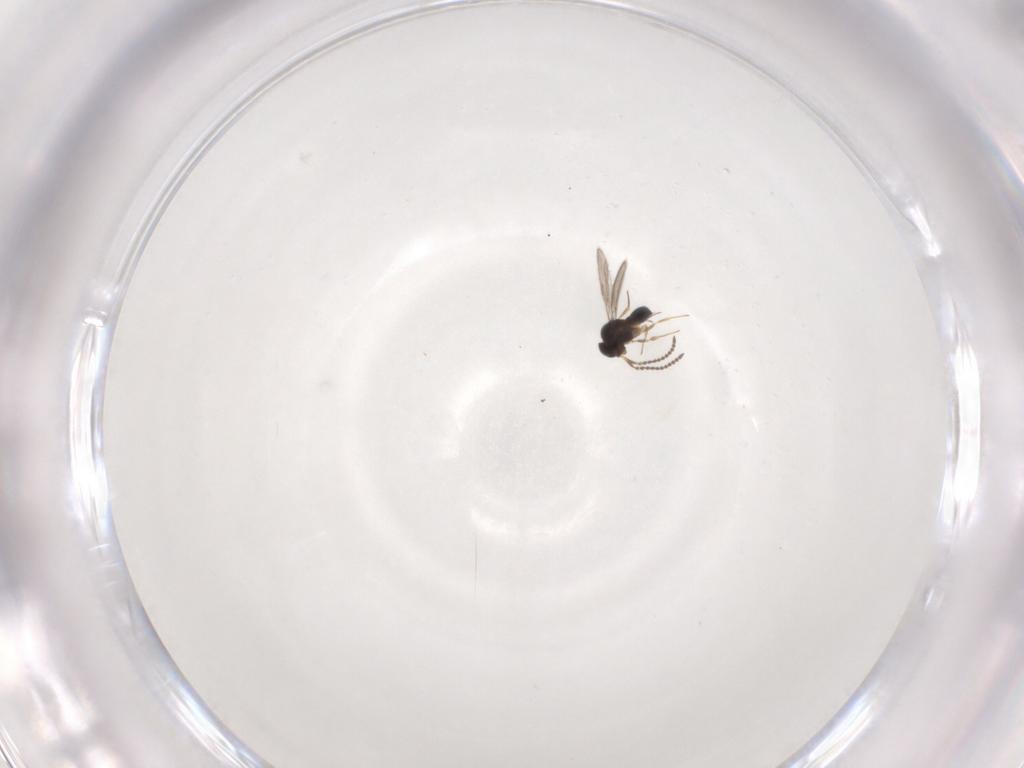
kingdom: Animalia
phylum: Arthropoda
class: Insecta
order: Hymenoptera
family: Scelionidae
